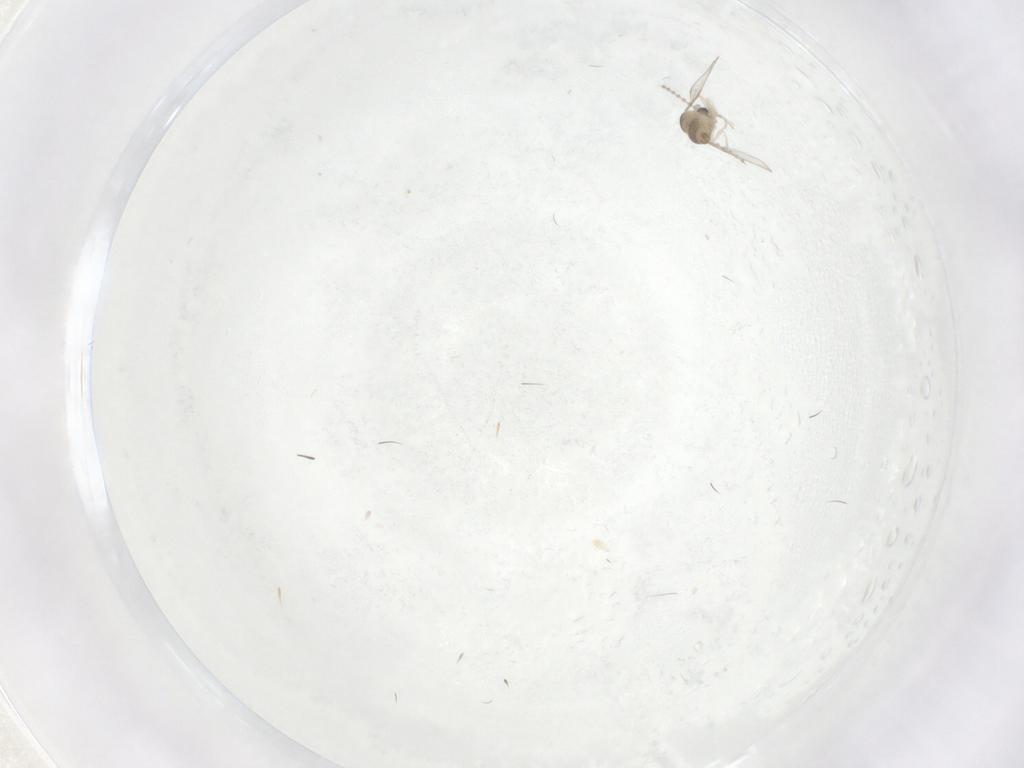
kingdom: Animalia
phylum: Arthropoda
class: Insecta
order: Diptera
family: Cecidomyiidae
